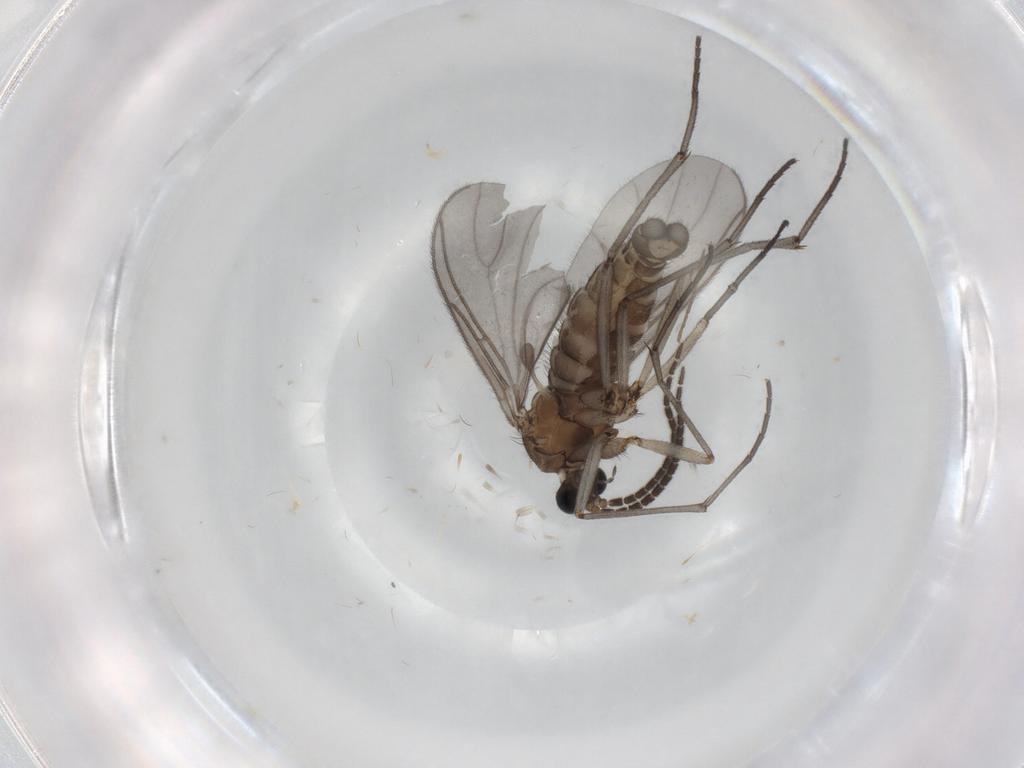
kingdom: Animalia
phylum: Arthropoda
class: Insecta
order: Diptera
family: Sciaridae
